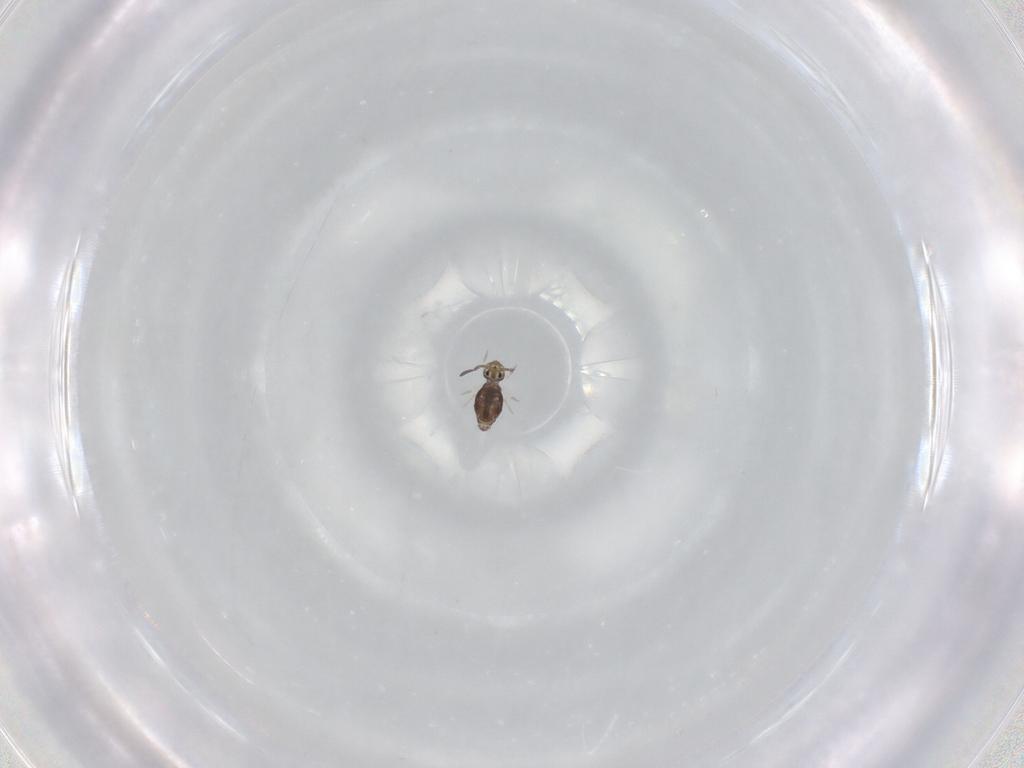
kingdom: Animalia
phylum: Arthropoda
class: Collembola
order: Symphypleona
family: Katiannidae
